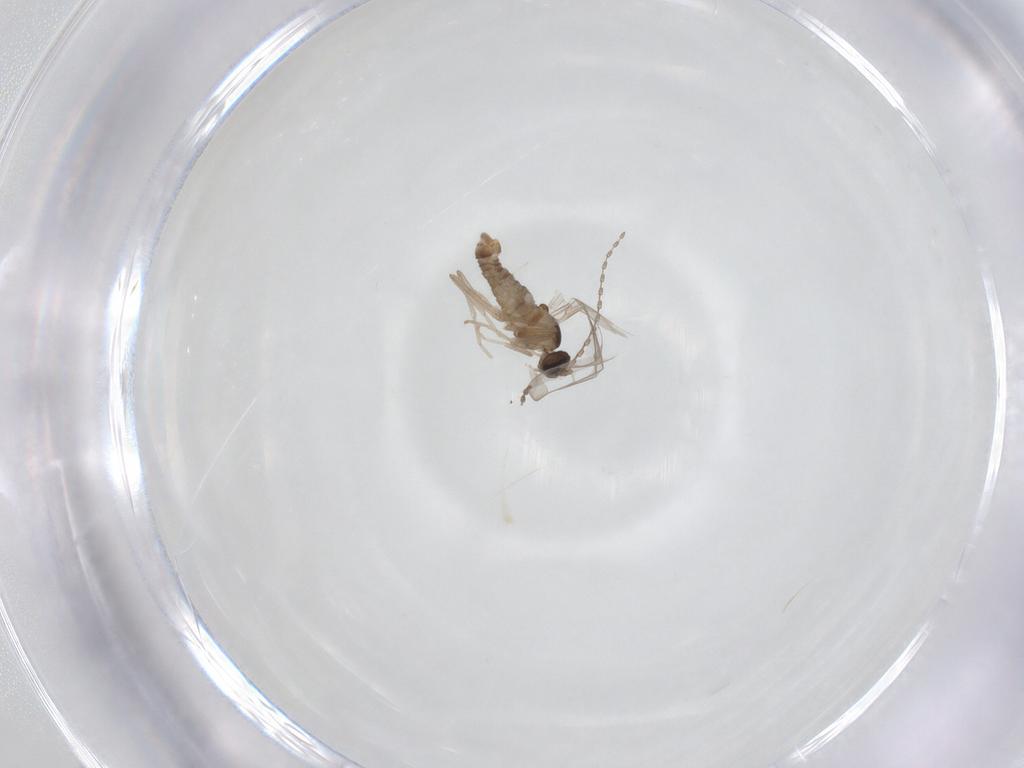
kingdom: Animalia
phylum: Arthropoda
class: Insecta
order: Diptera
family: Cecidomyiidae
